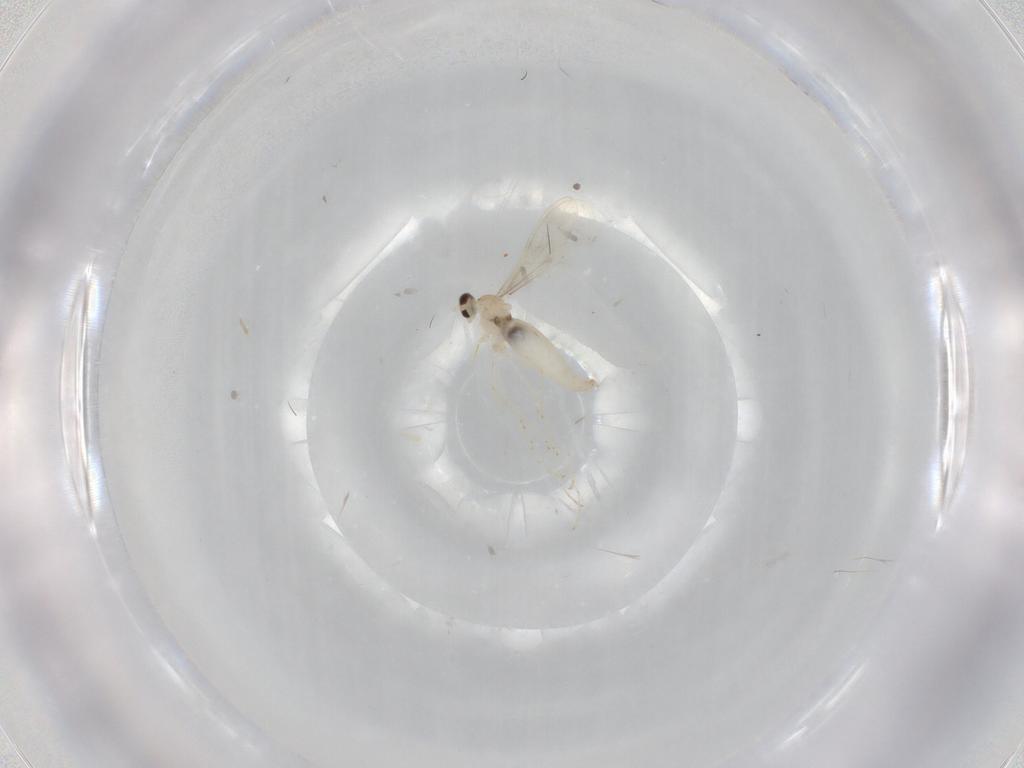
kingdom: Animalia
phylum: Arthropoda
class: Insecta
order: Diptera
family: Cecidomyiidae
